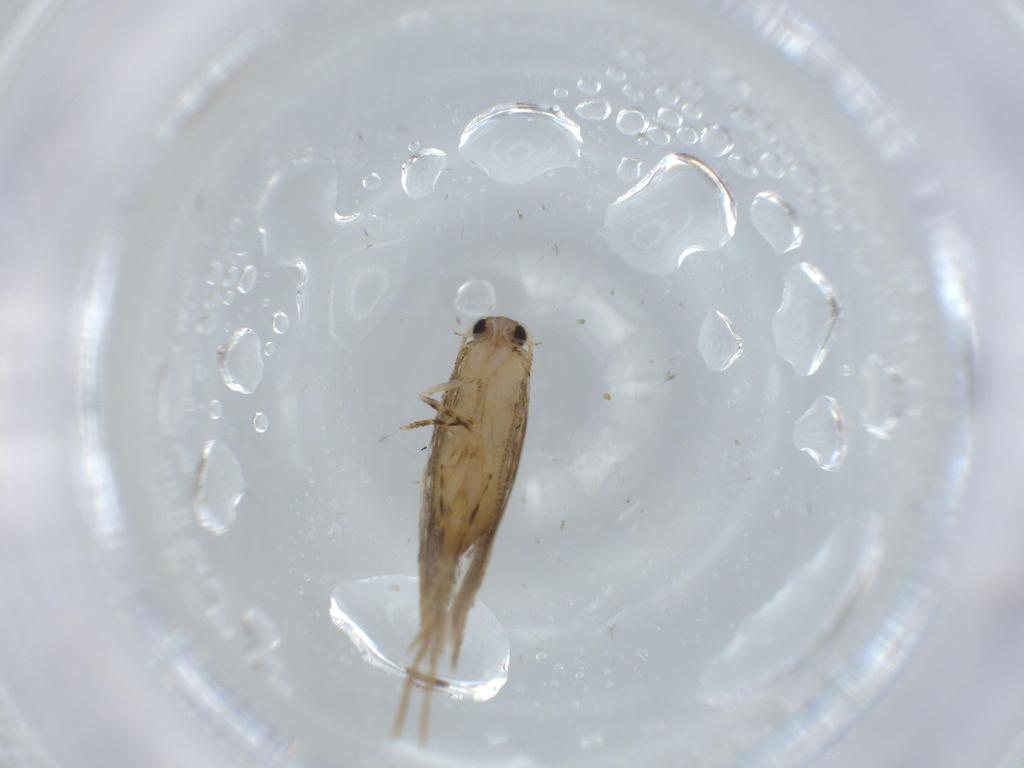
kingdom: Animalia
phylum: Arthropoda
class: Insecta
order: Lepidoptera
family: Tineidae
